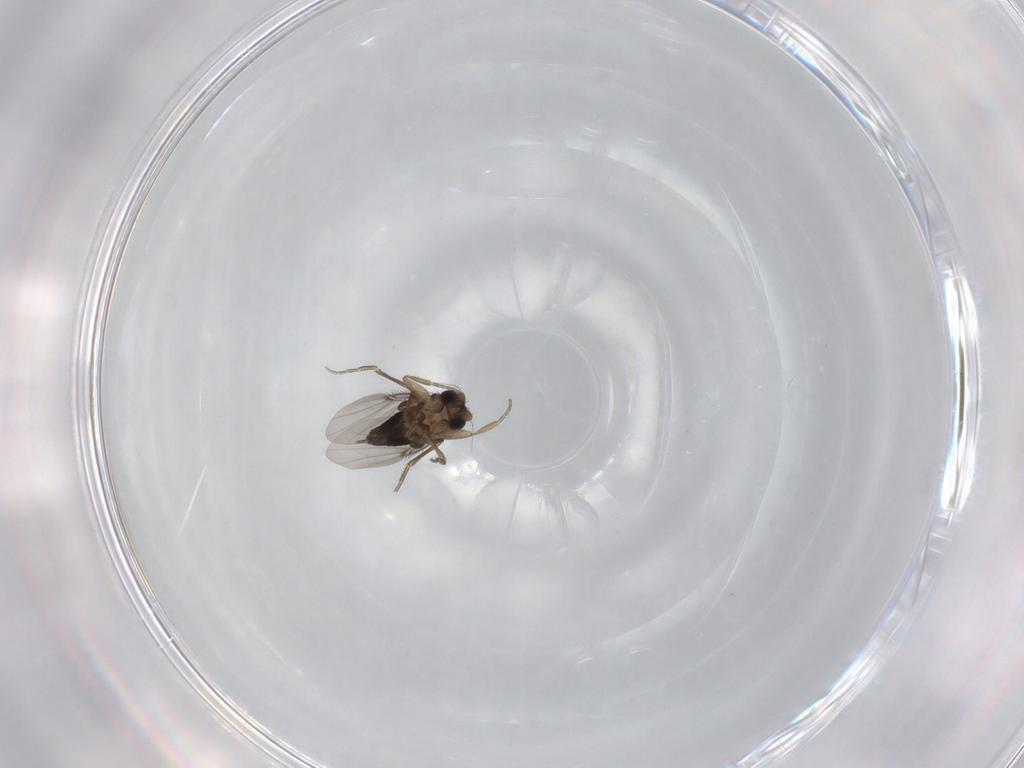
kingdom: Animalia
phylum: Arthropoda
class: Insecta
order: Diptera
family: Phoridae
